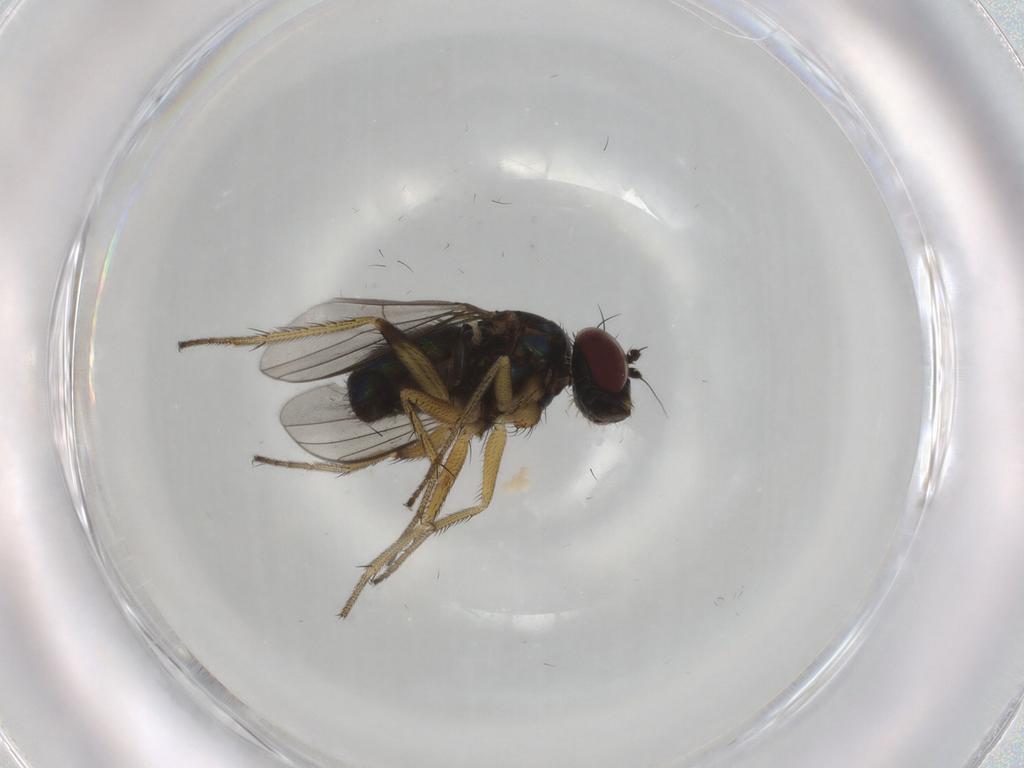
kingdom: Animalia
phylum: Arthropoda
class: Insecta
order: Diptera
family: Dolichopodidae
